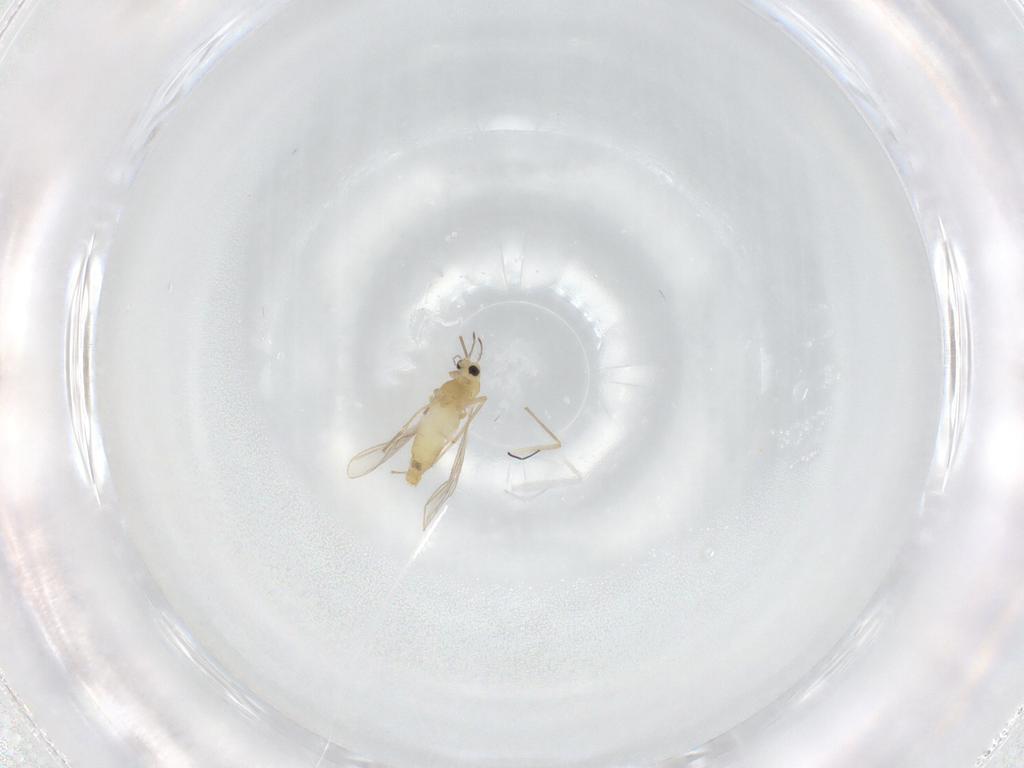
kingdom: Animalia
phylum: Arthropoda
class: Insecta
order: Diptera
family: Chironomidae
